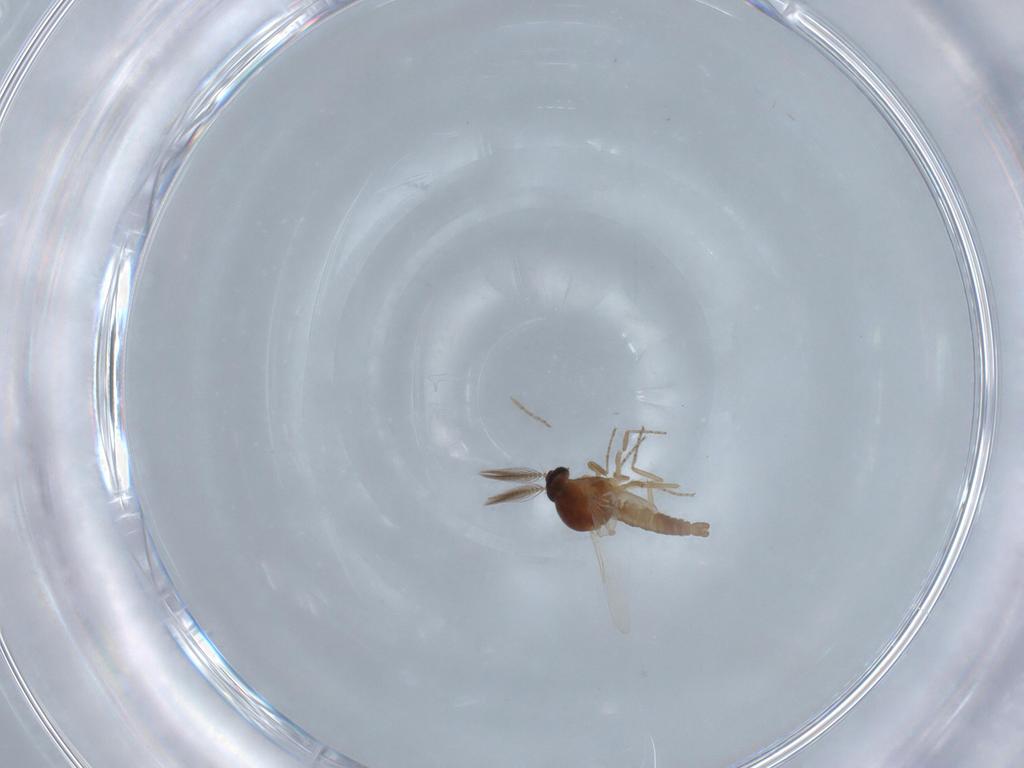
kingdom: Animalia
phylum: Arthropoda
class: Insecta
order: Diptera
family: Ceratopogonidae
